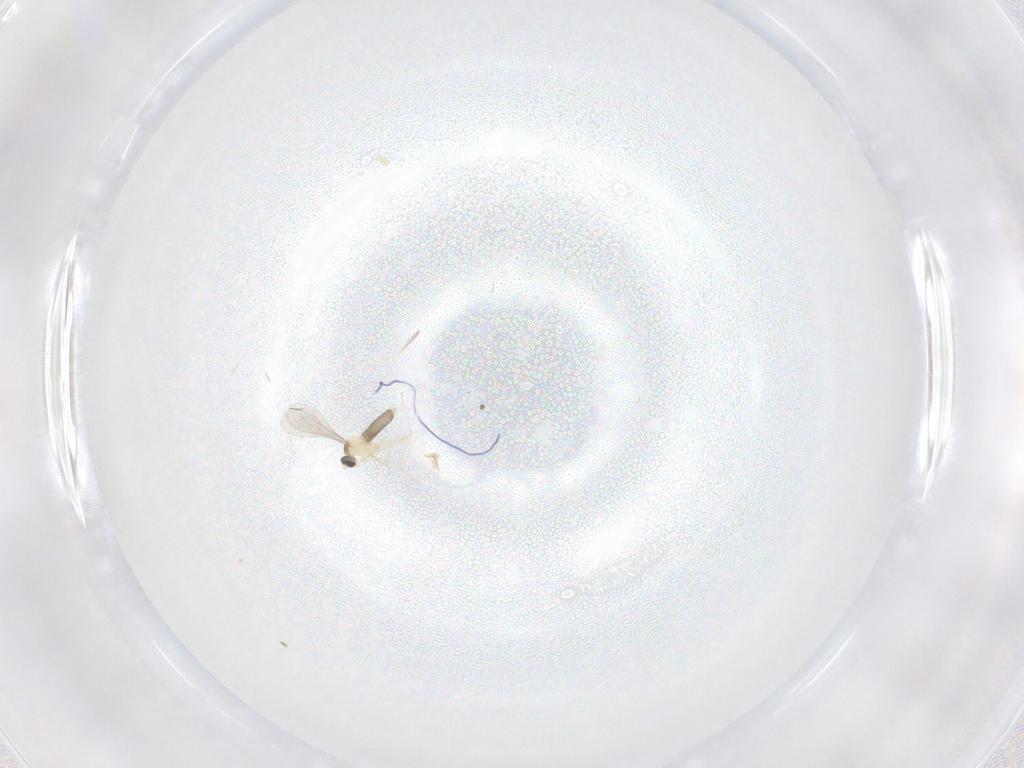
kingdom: Animalia
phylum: Arthropoda
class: Insecta
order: Diptera
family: Cecidomyiidae
